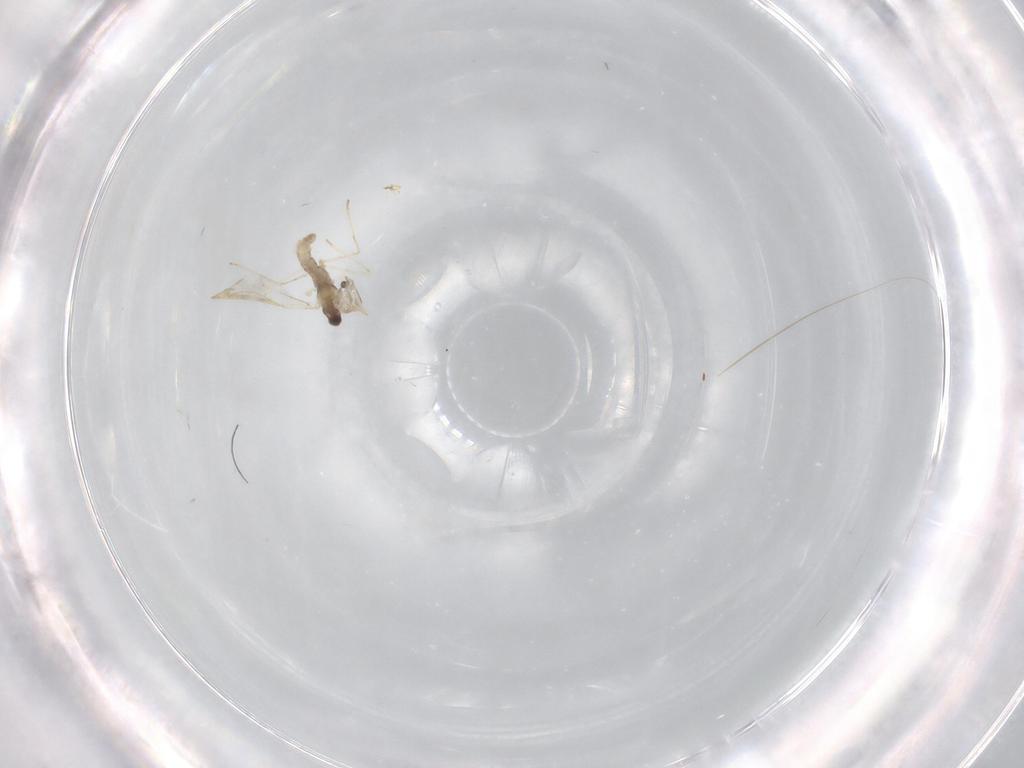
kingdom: Animalia
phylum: Arthropoda
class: Insecta
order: Diptera
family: Cecidomyiidae
